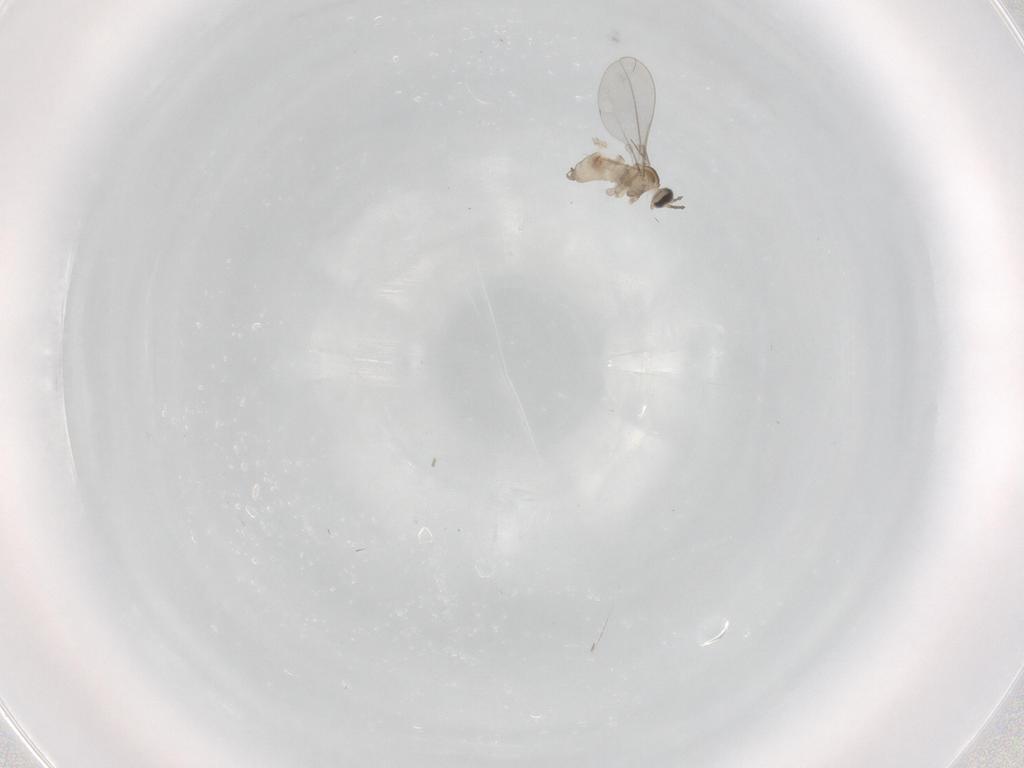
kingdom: Animalia
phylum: Arthropoda
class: Insecta
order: Diptera
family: Cecidomyiidae
